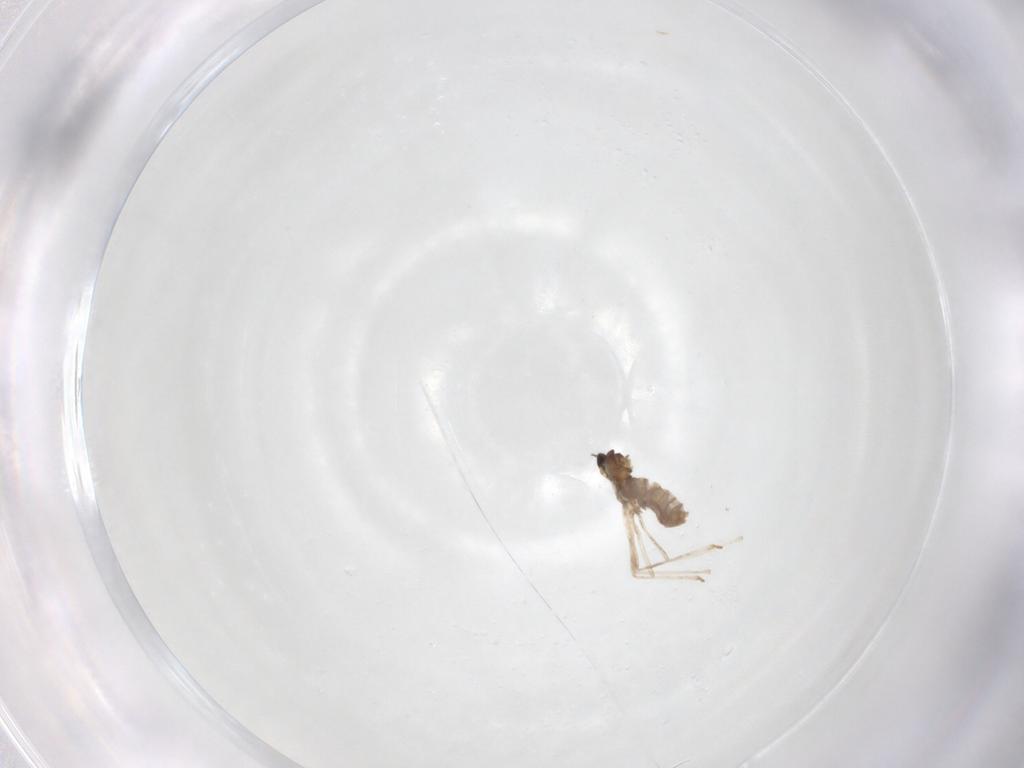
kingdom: Animalia
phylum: Arthropoda
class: Insecta
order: Diptera
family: Cecidomyiidae
